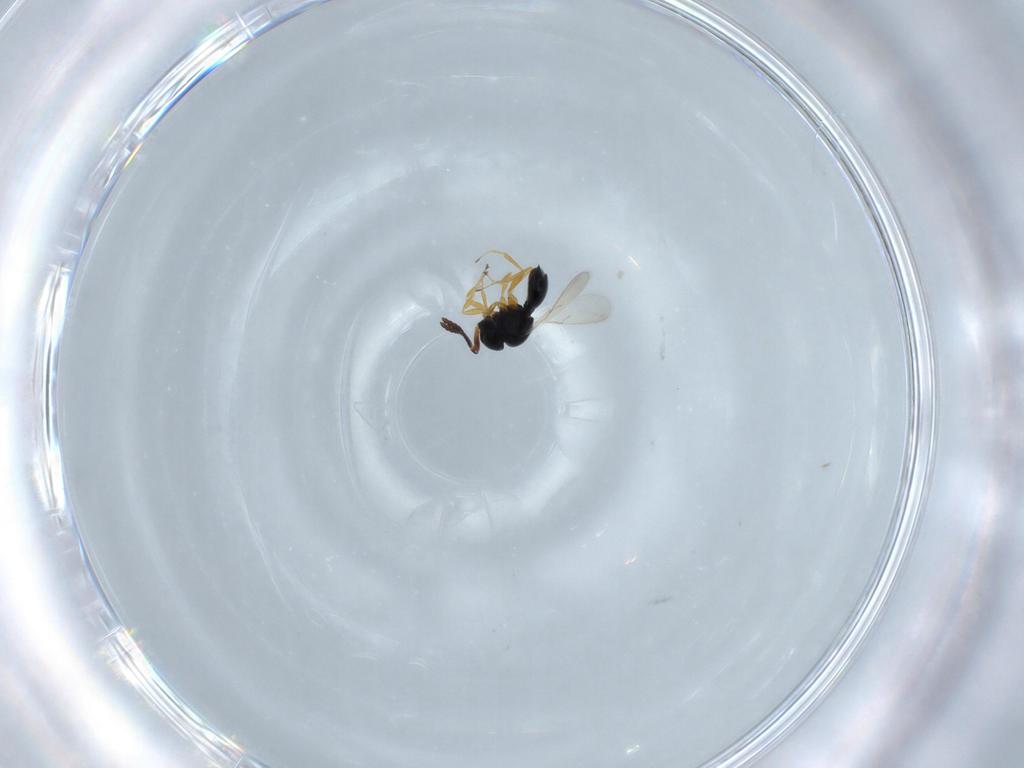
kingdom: Animalia
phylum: Arthropoda
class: Insecta
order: Hymenoptera
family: Scelionidae
